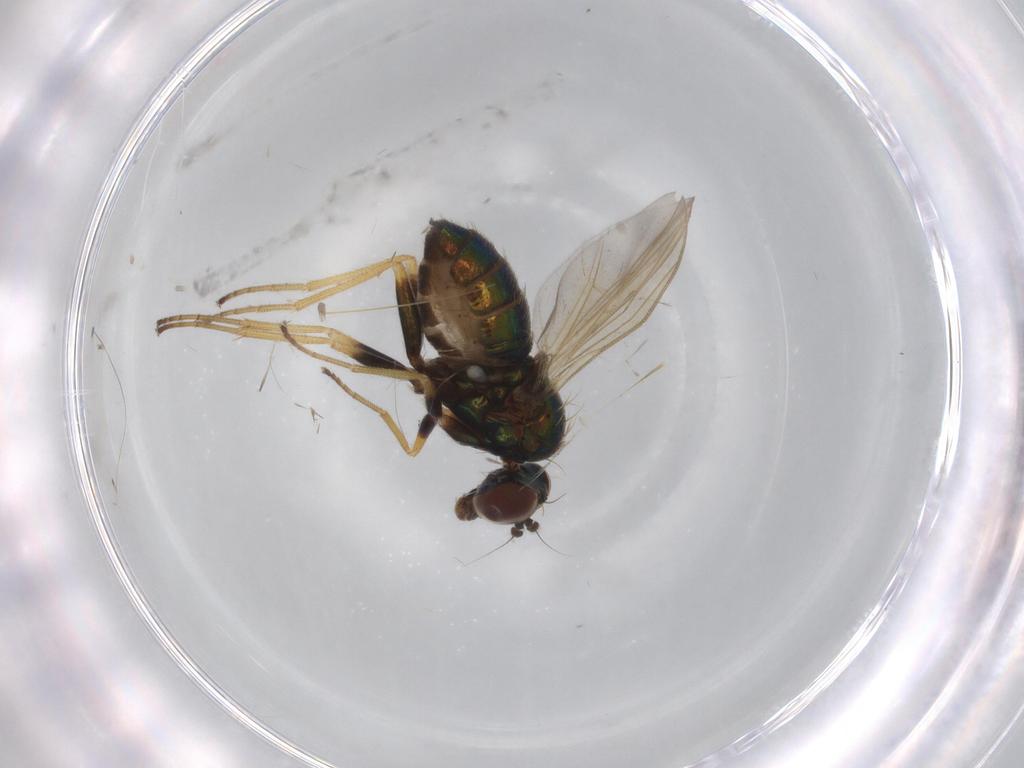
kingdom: Animalia
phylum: Arthropoda
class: Insecta
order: Diptera
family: Dolichopodidae
